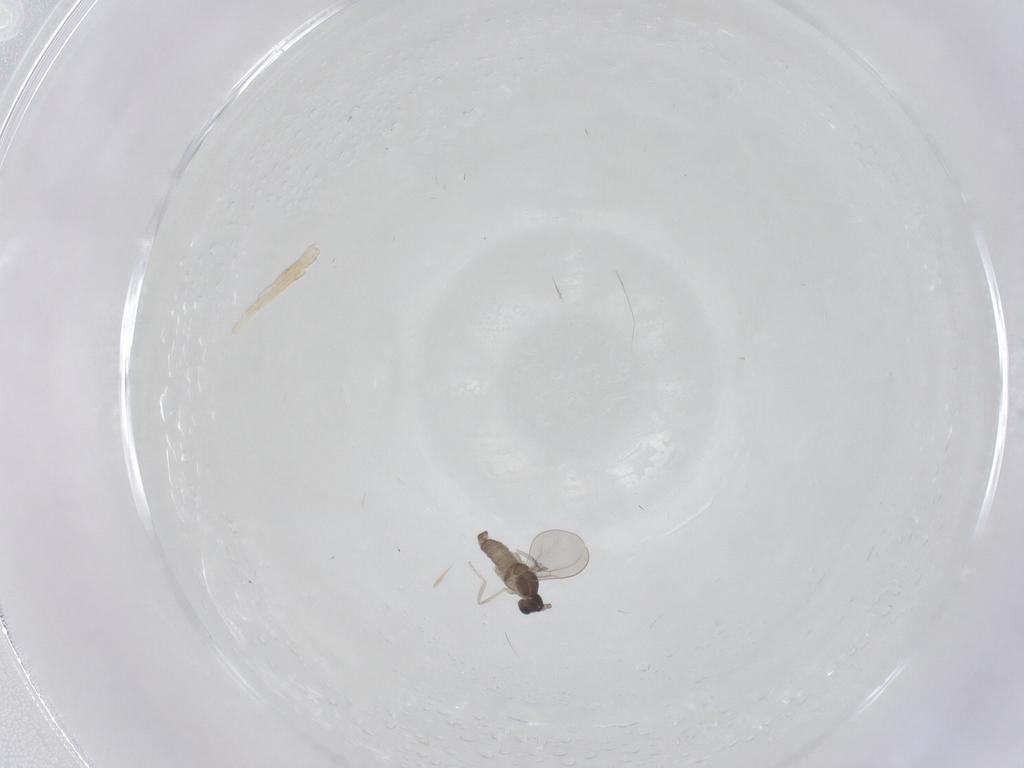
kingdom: Animalia
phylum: Arthropoda
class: Insecta
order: Diptera
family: Cecidomyiidae
